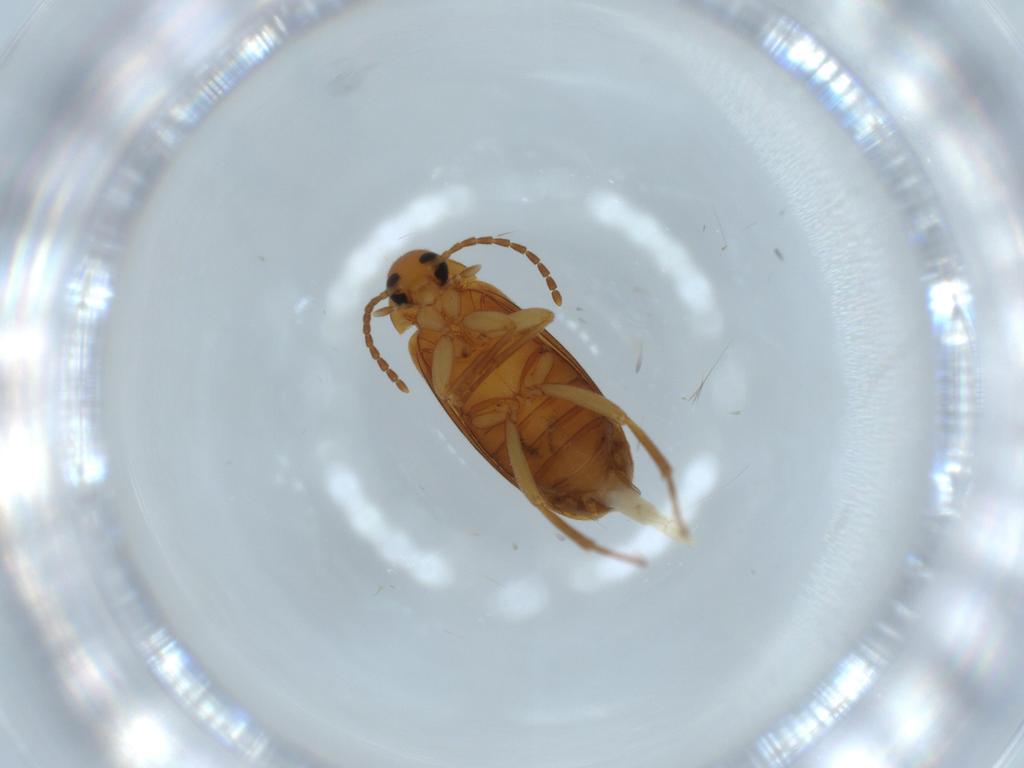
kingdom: Animalia
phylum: Arthropoda
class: Insecta
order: Coleoptera
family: Scraptiidae
